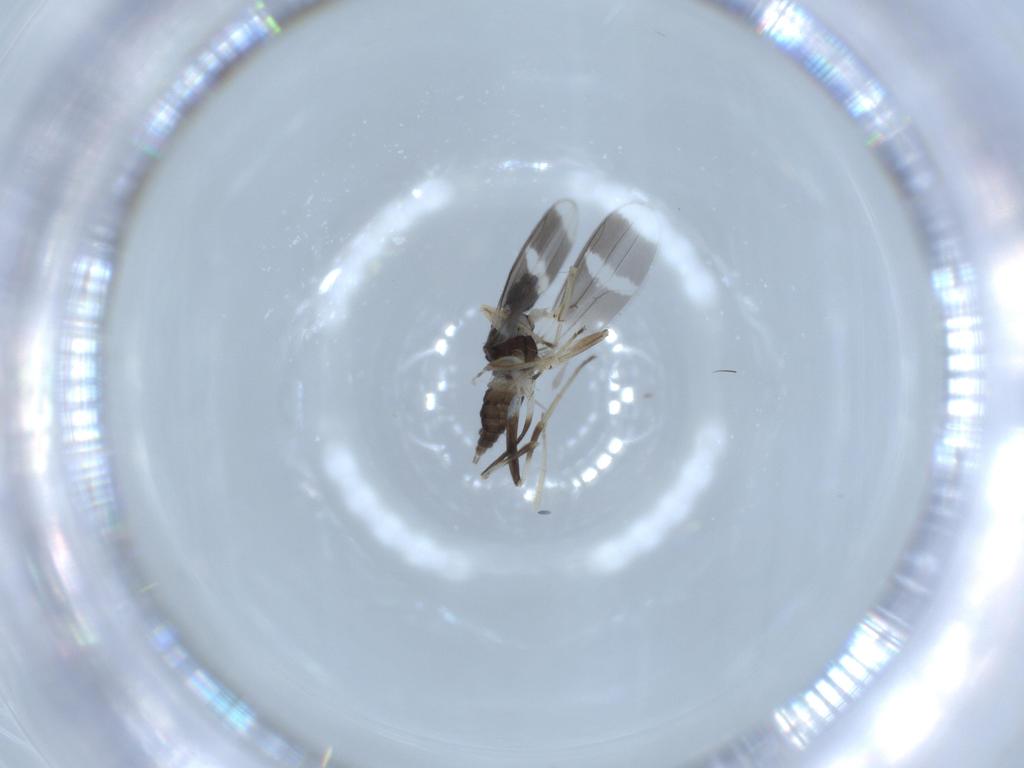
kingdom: Animalia
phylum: Arthropoda
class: Insecta
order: Diptera
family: Hybotidae
